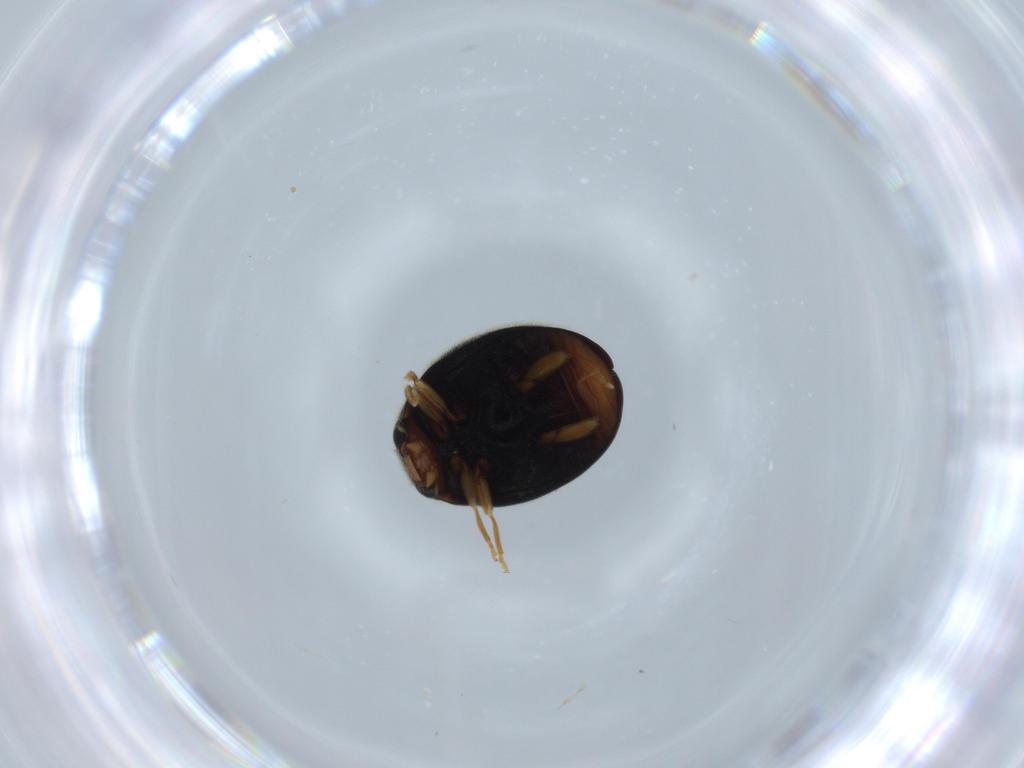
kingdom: Animalia
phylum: Arthropoda
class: Insecta
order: Coleoptera
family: Coccinellidae
